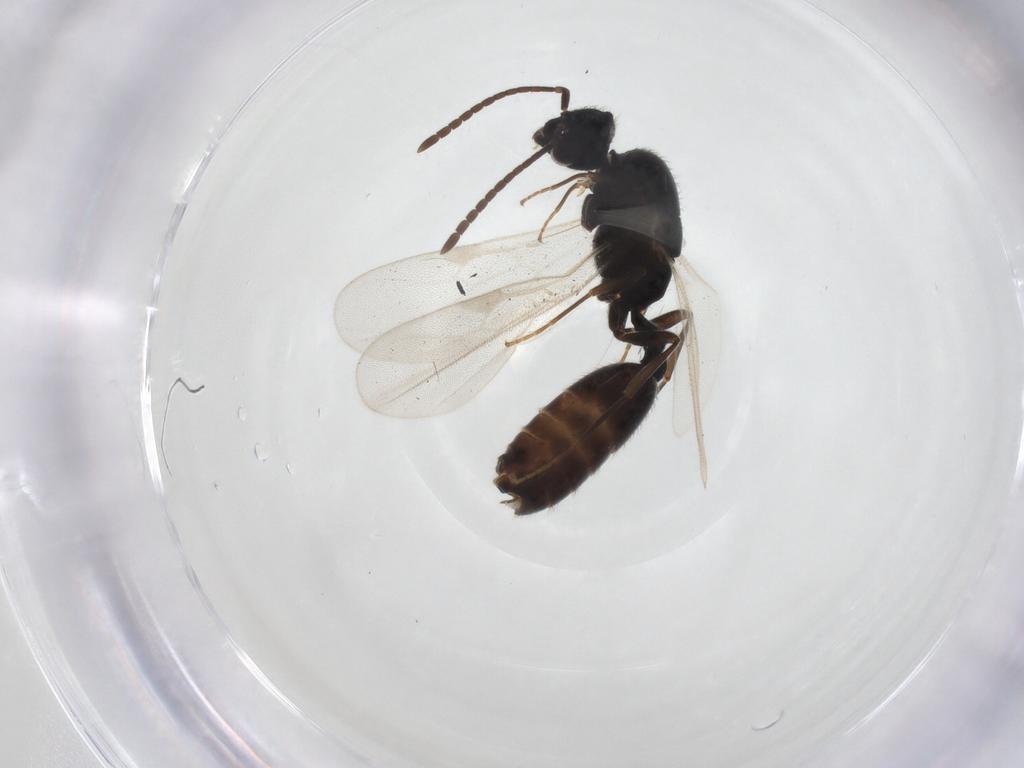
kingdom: Animalia
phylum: Arthropoda
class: Insecta
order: Hymenoptera
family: Formicidae
